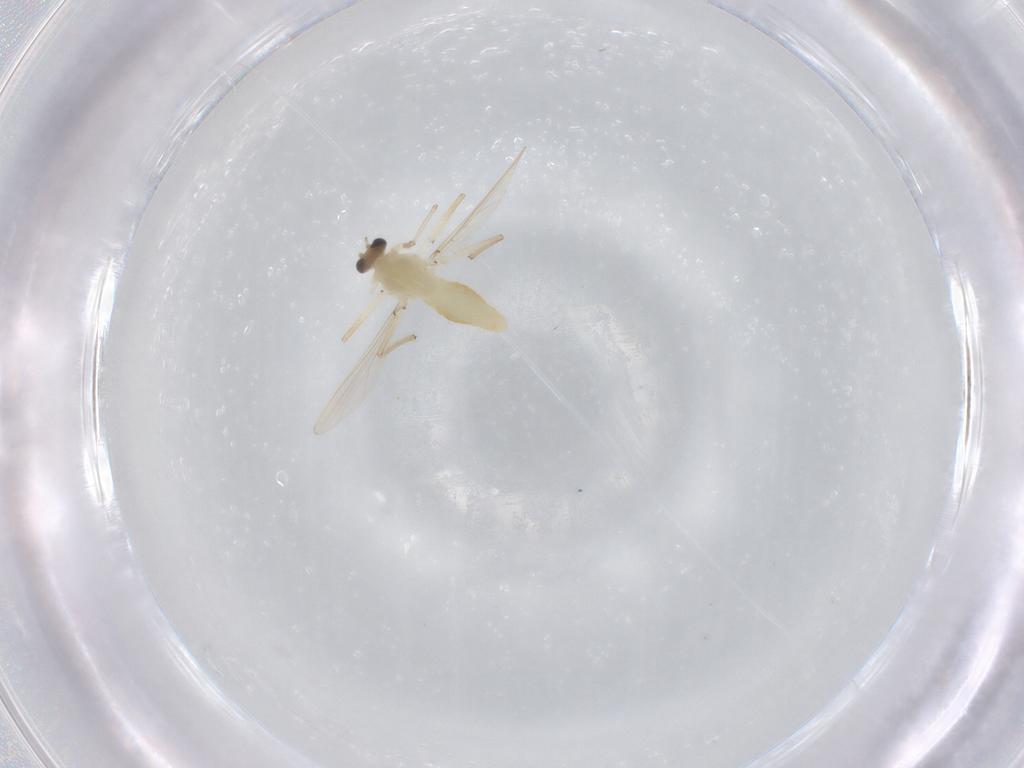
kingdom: Animalia
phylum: Arthropoda
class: Insecta
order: Diptera
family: Chironomidae
